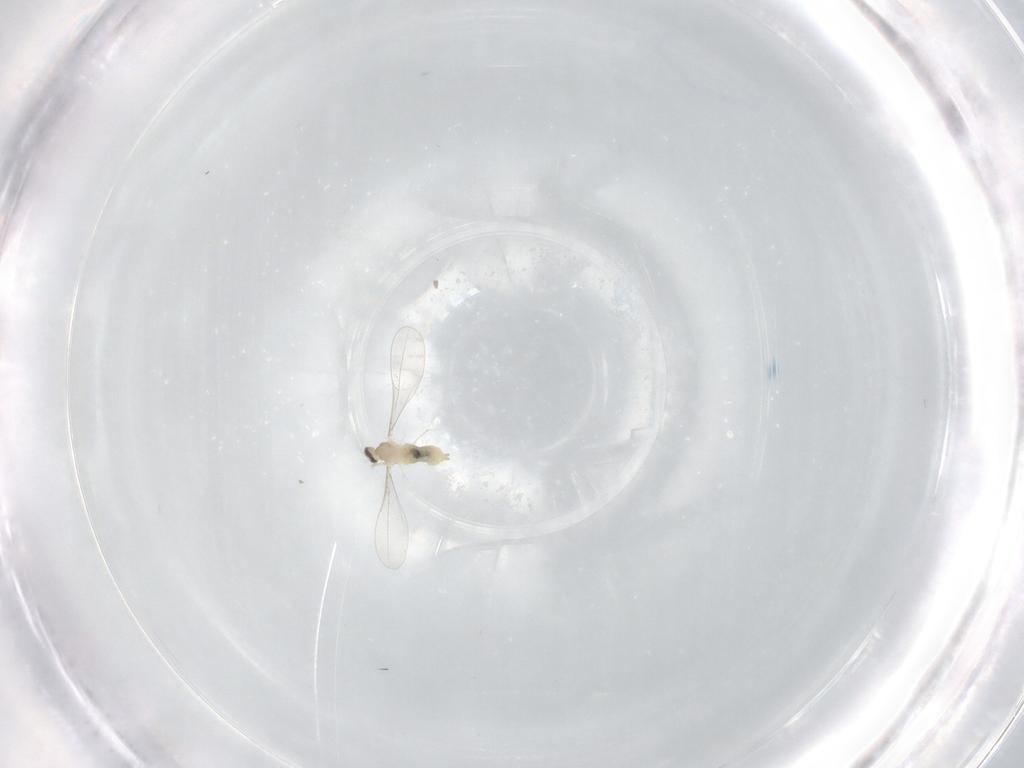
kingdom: Animalia
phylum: Arthropoda
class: Insecta
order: Diptera
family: Cecidomyiidae
